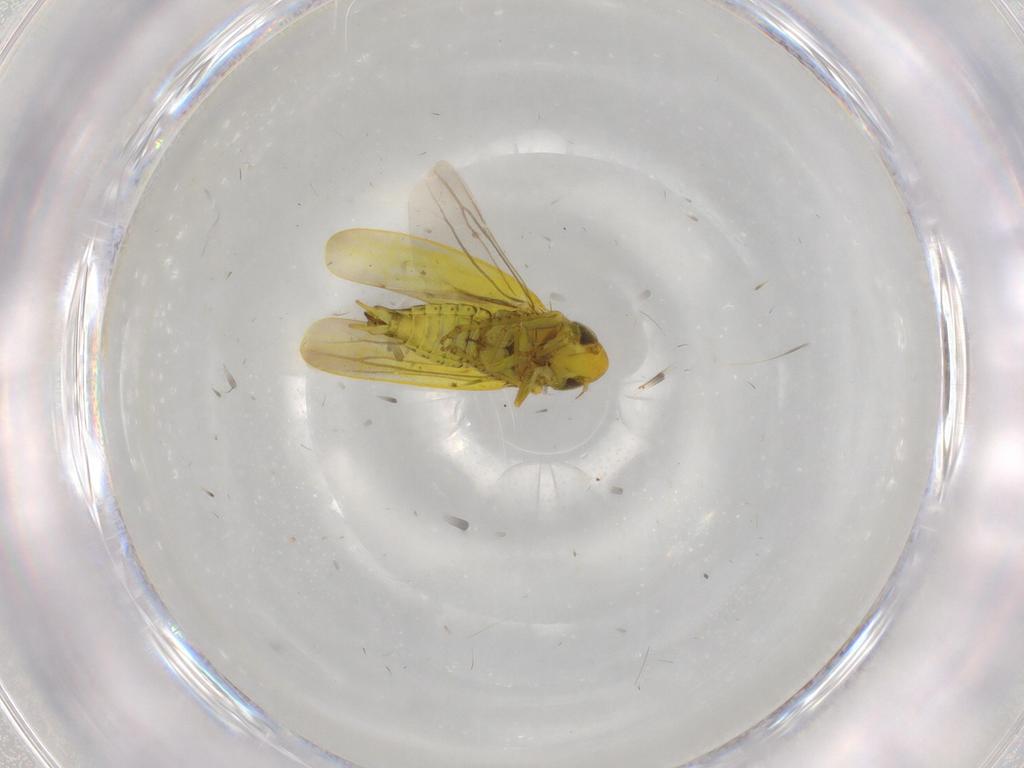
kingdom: Animalia
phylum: Arthropoda
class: Insecta
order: Hemiptera
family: Cicadellidae
